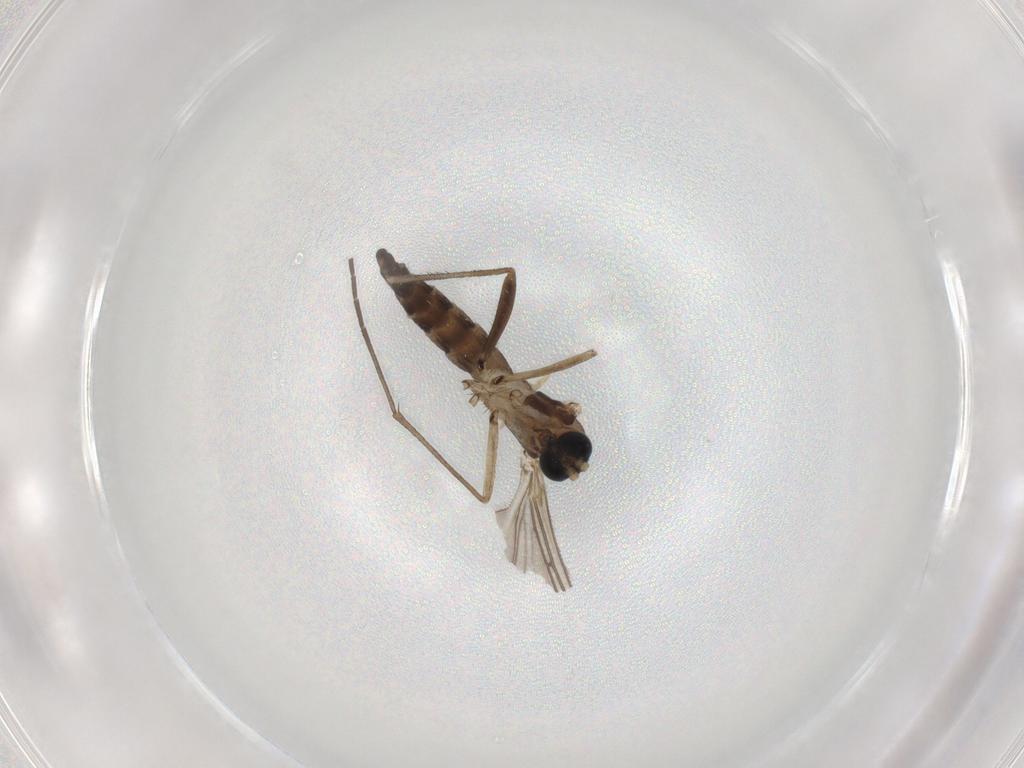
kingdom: Animalia
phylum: Arthropoda
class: Insecta
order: Diptera
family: Sciaridae
